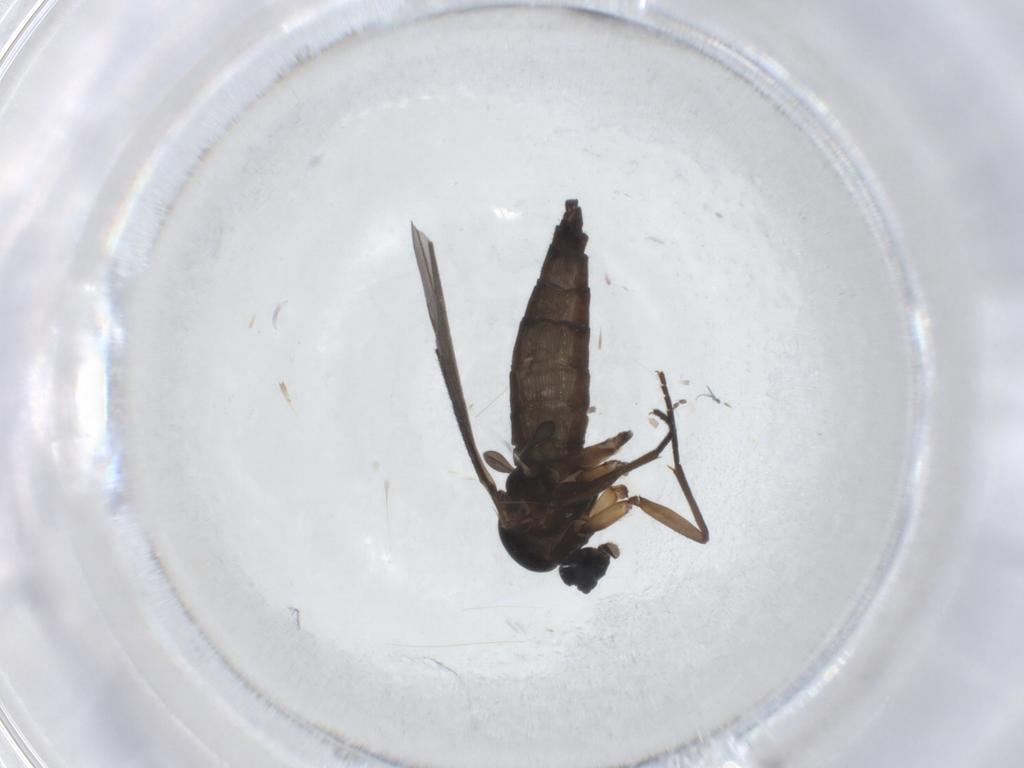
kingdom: Animalia
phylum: Arthropoda
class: Insecta
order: Diptera
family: Sciaridae
